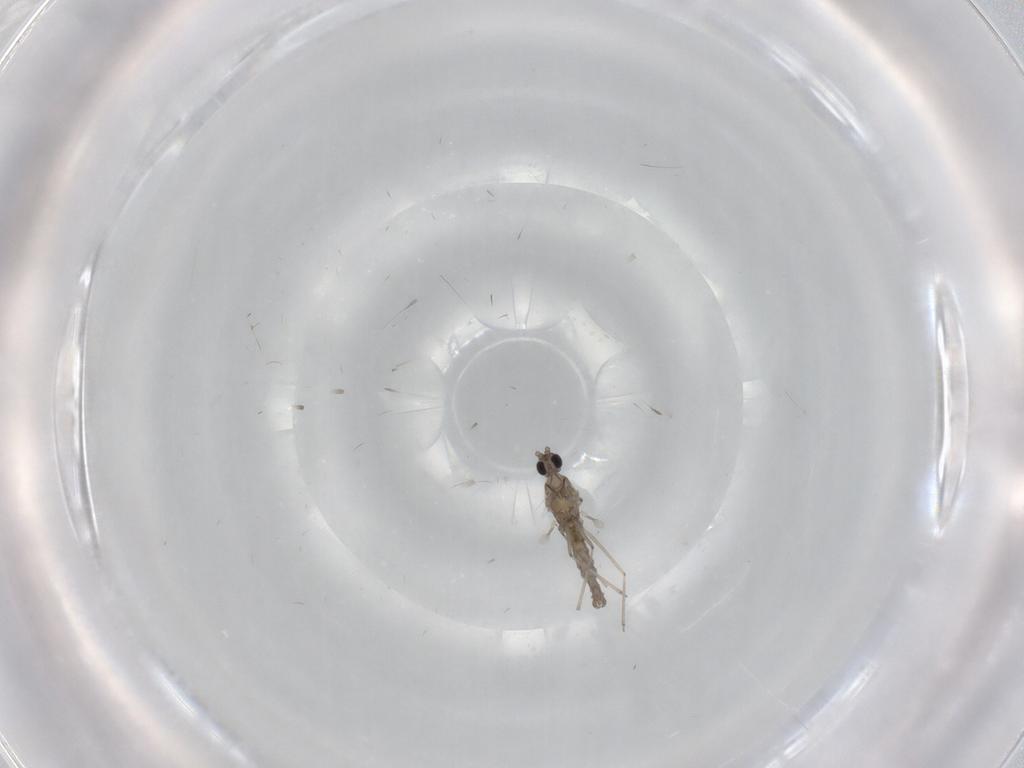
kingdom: Animalia
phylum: Arthropoda
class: Insecta
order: Diptera
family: Cecidomyiidae
